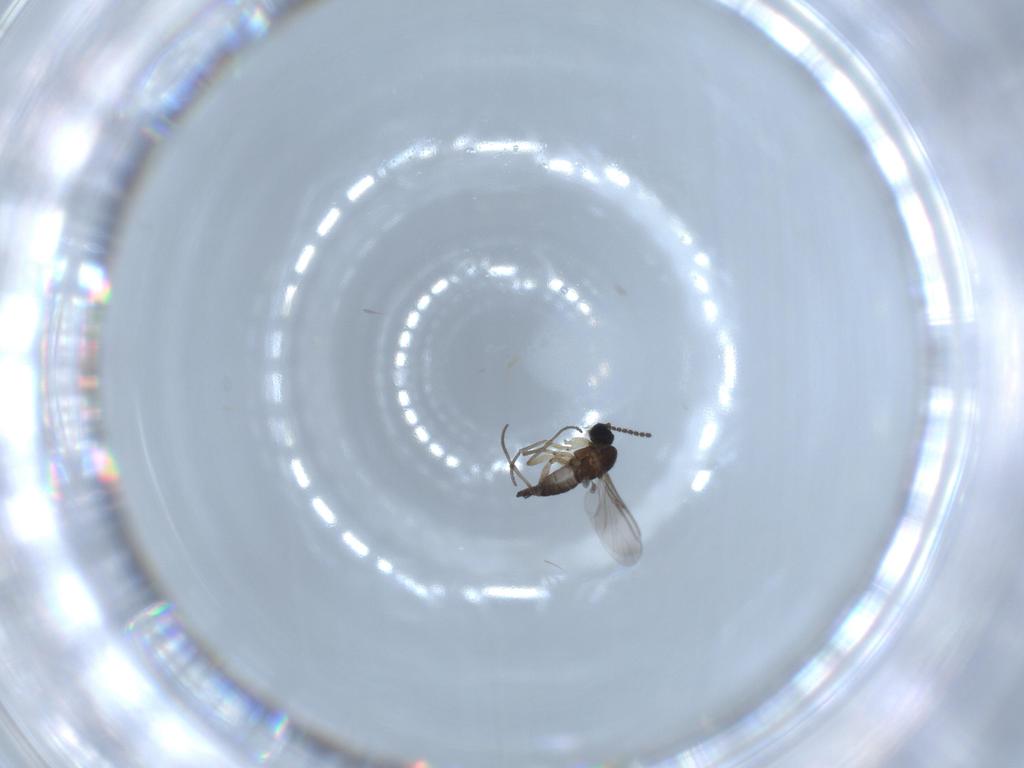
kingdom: Animalia
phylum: Arthropoda
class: Insecta
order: Diptera
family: Sciaridae
